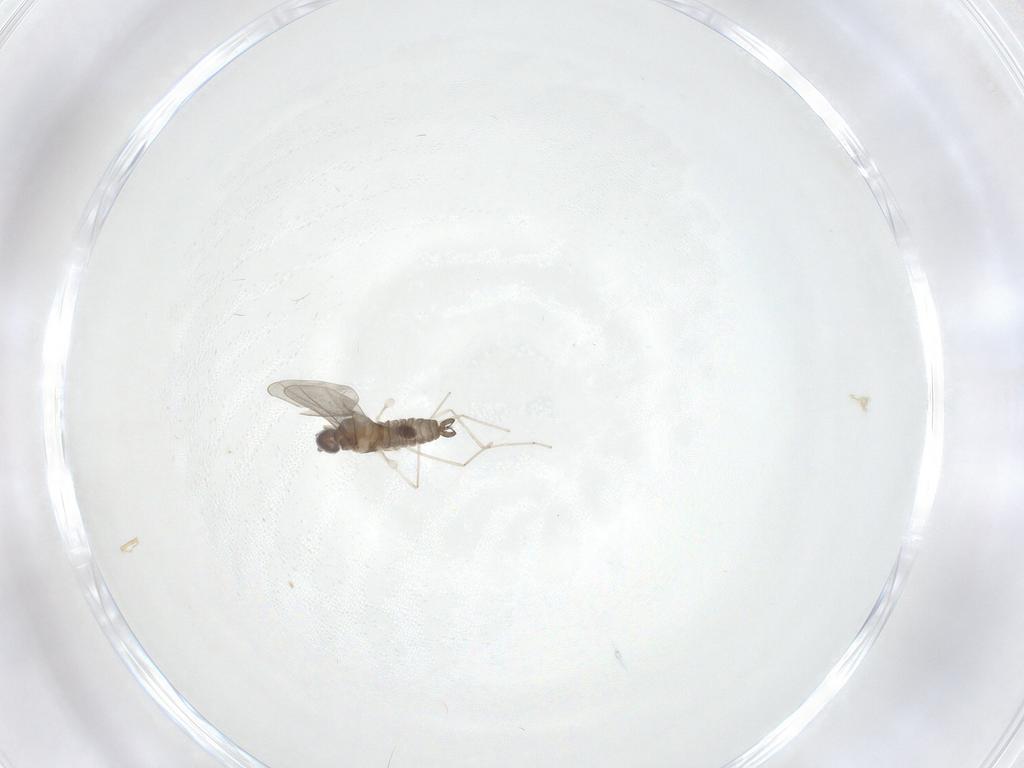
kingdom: Animalia
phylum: Arthropoda
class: Insecta
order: Diptera
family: Cecidomyiidae
